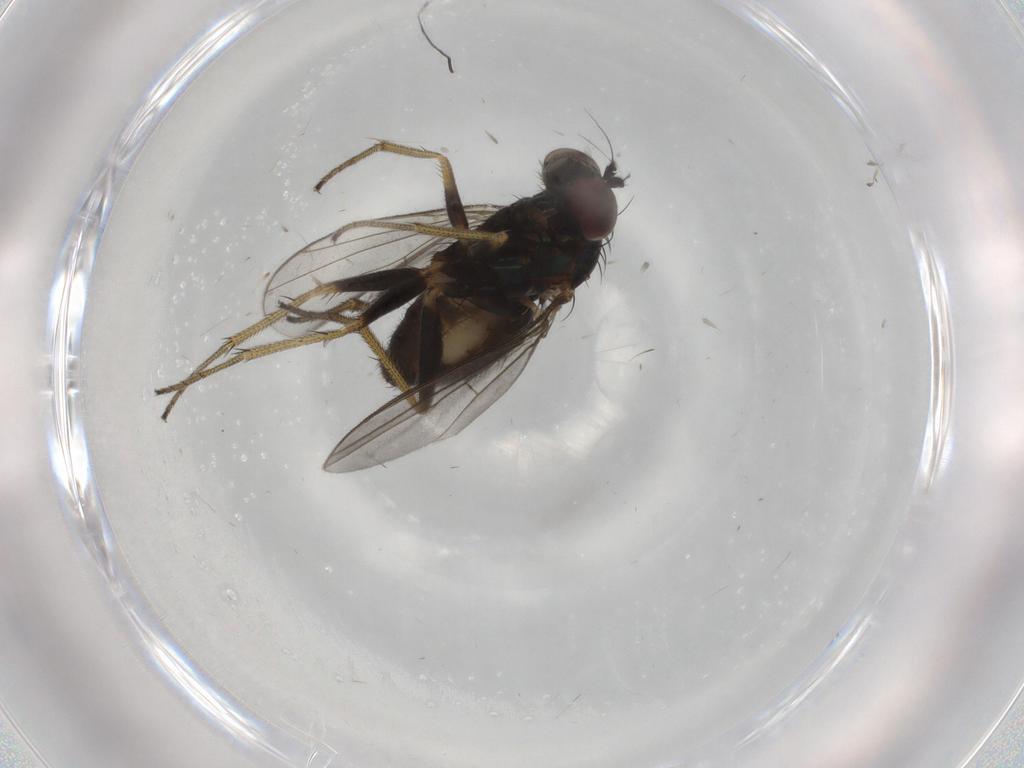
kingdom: Animalia
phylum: Arthropoda
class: Insecta
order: Diptera
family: Dolichopodidae
